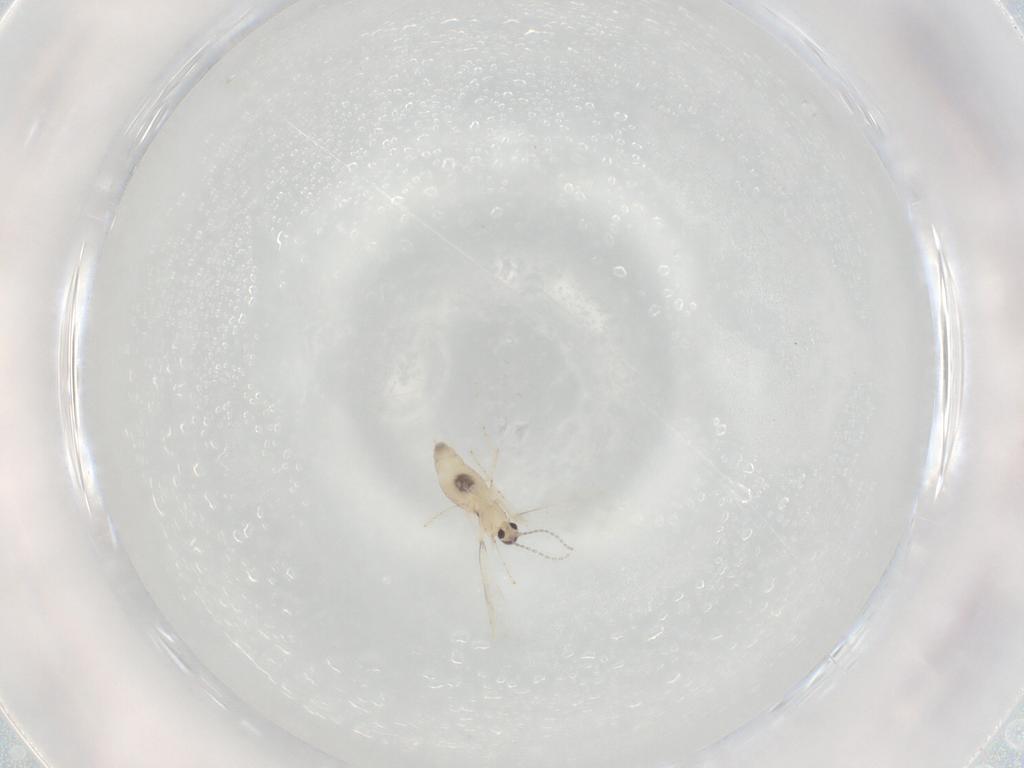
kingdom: Animalia
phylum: Arthropoda
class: Insecta
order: Diptera
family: Cecidomyiidae
